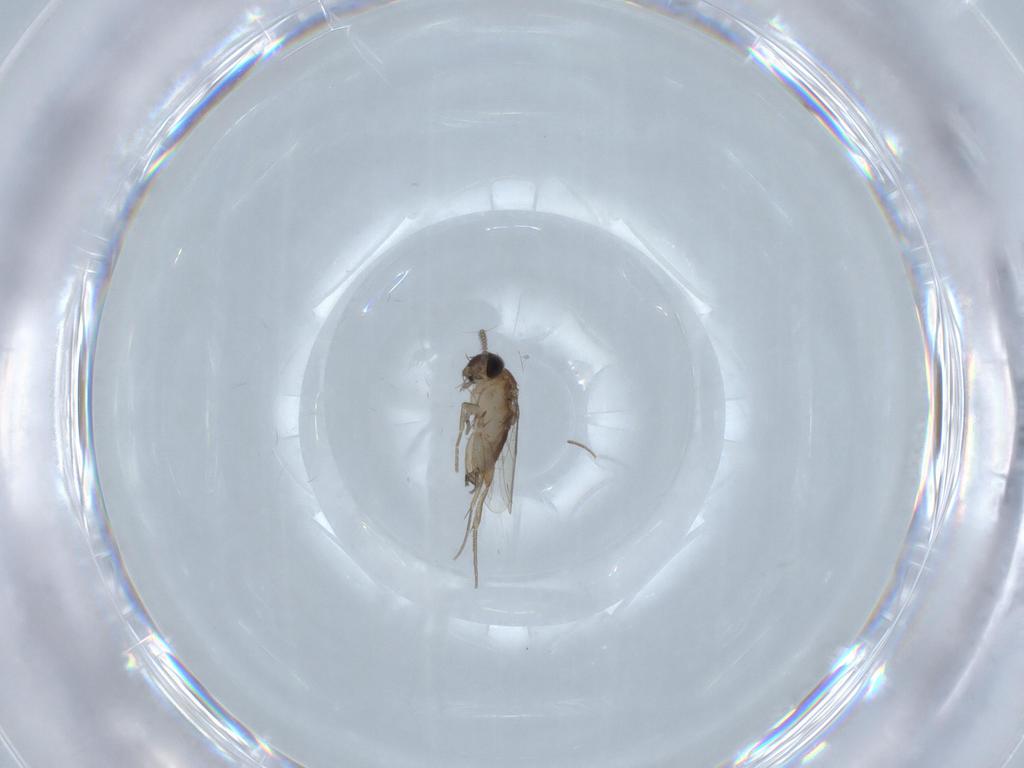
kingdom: Animalia
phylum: Arthropoda
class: Insecta
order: Diptera
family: Phoridae
